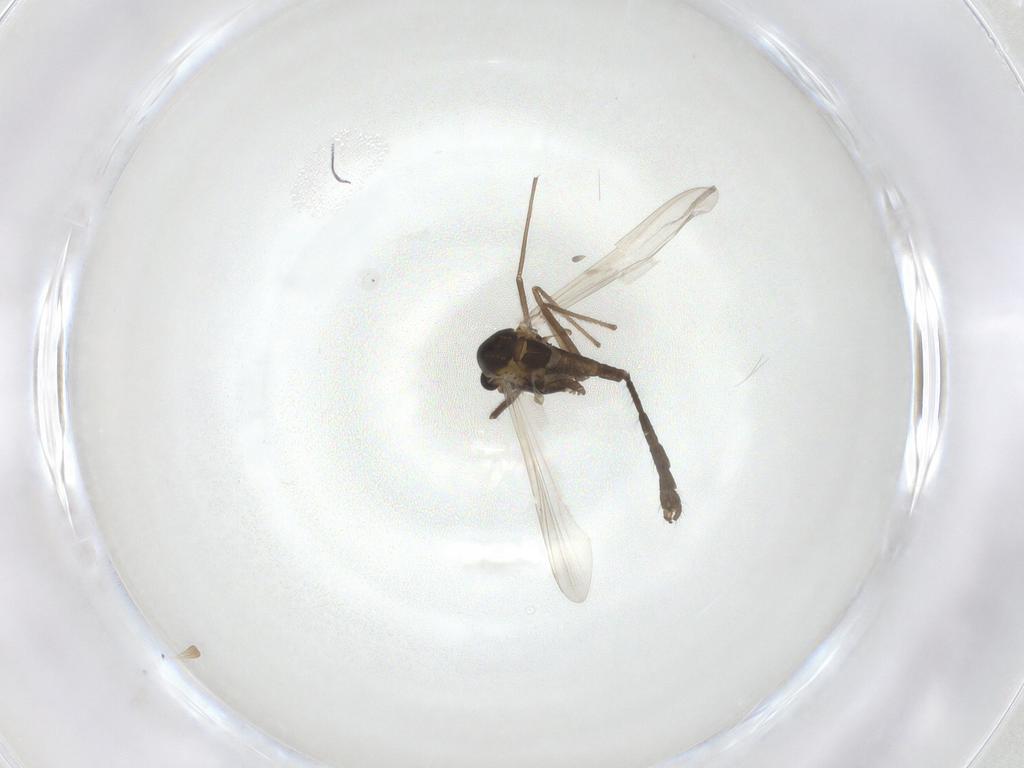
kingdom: Animalia
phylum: Arthropoda
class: Insecta
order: Diptera
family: Chironomidae
